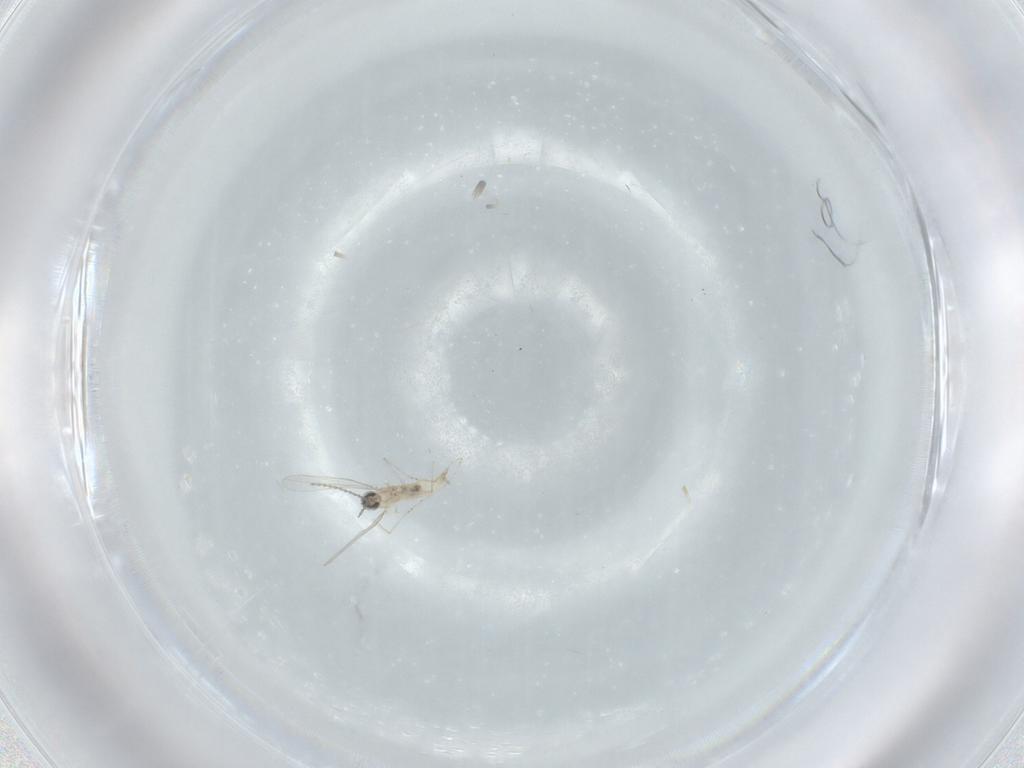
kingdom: Animalia
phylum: Arthropoda
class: Insecta
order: Diptera
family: Cecidomyiidae
